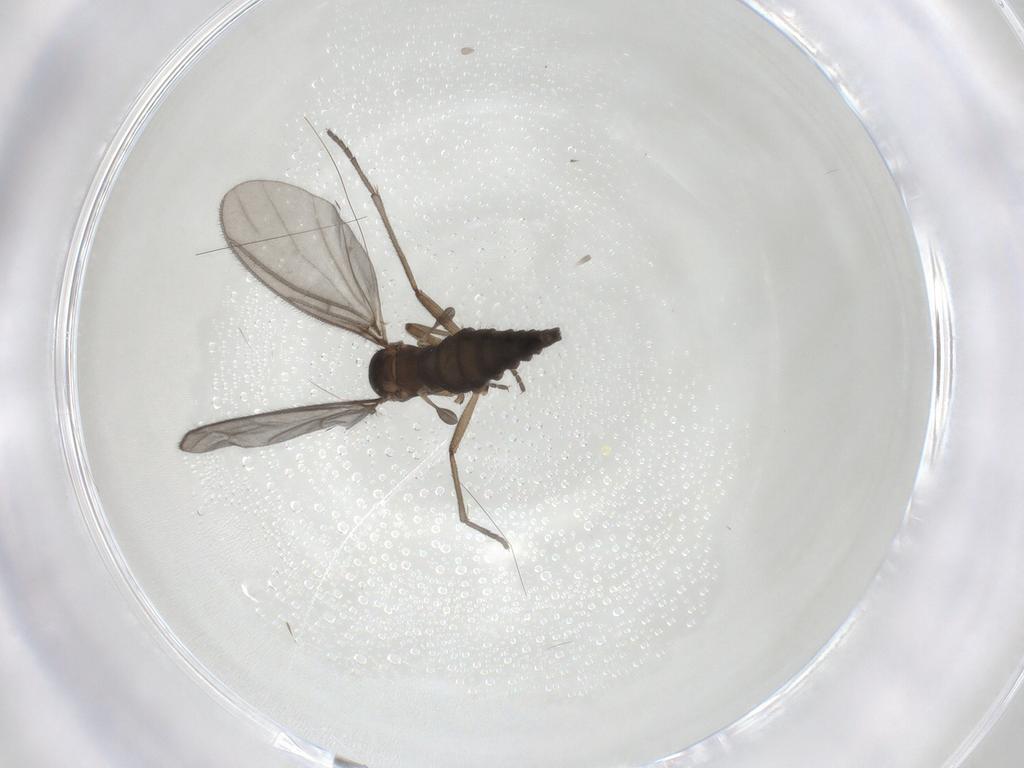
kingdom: Animalia
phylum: Arthropoda
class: Insecta
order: Diptera
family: Sciaridae
